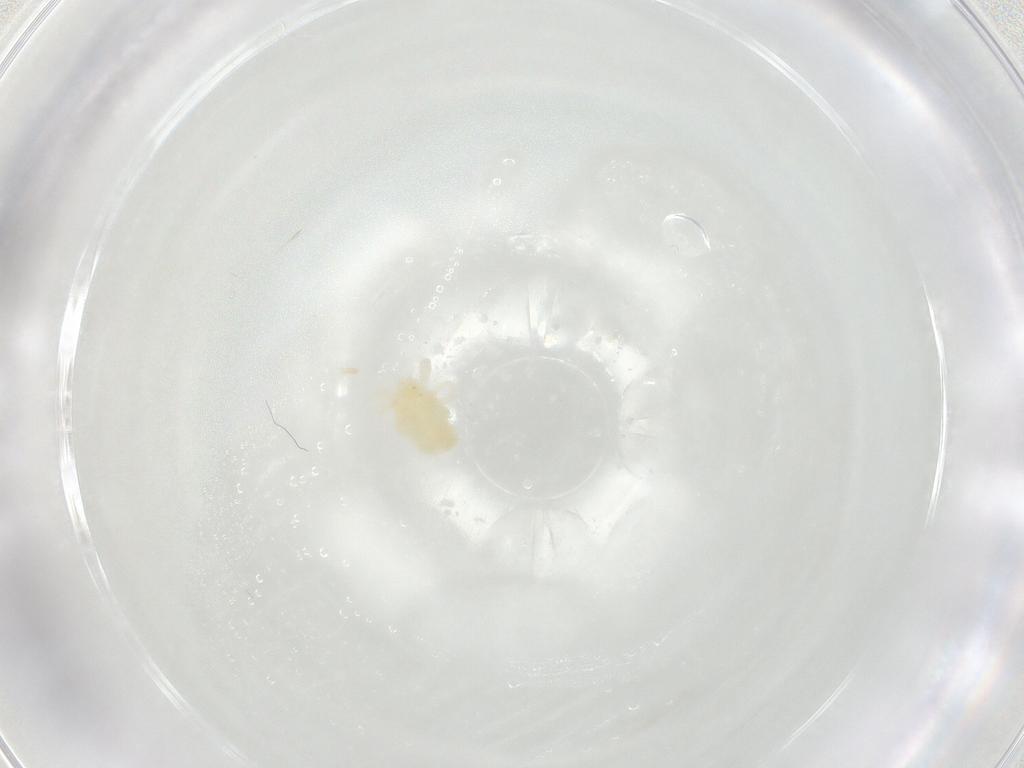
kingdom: Animalia
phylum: Arthropoda
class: Arachnida
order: Trombidiformes
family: Anystidae
